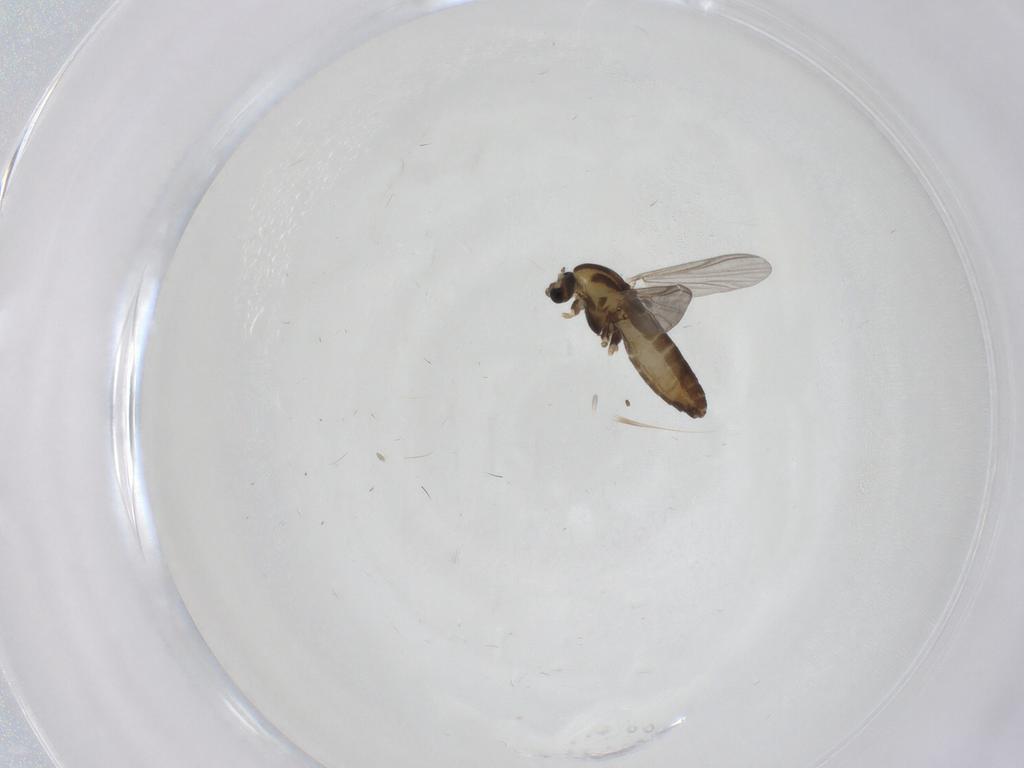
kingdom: Animalia
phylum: Arthropoda
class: Insecta
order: Diptera
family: Chironomidae
